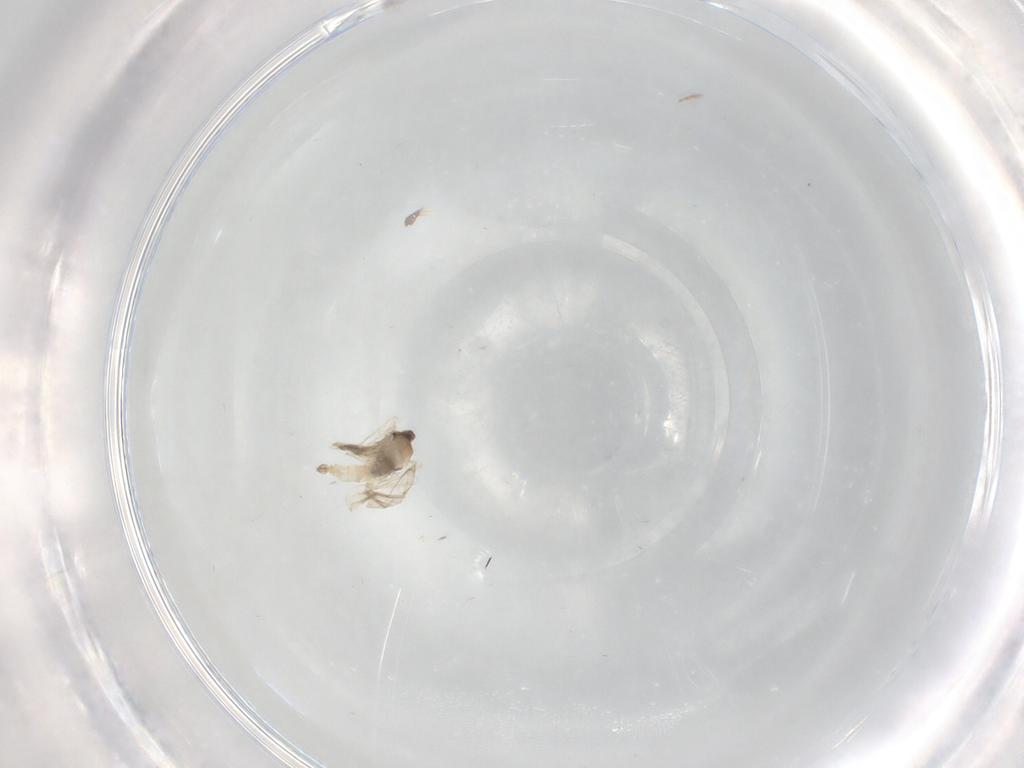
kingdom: Animalia
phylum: Arthropoda
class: Insecta
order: Diptera
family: Cecidomyiidae
